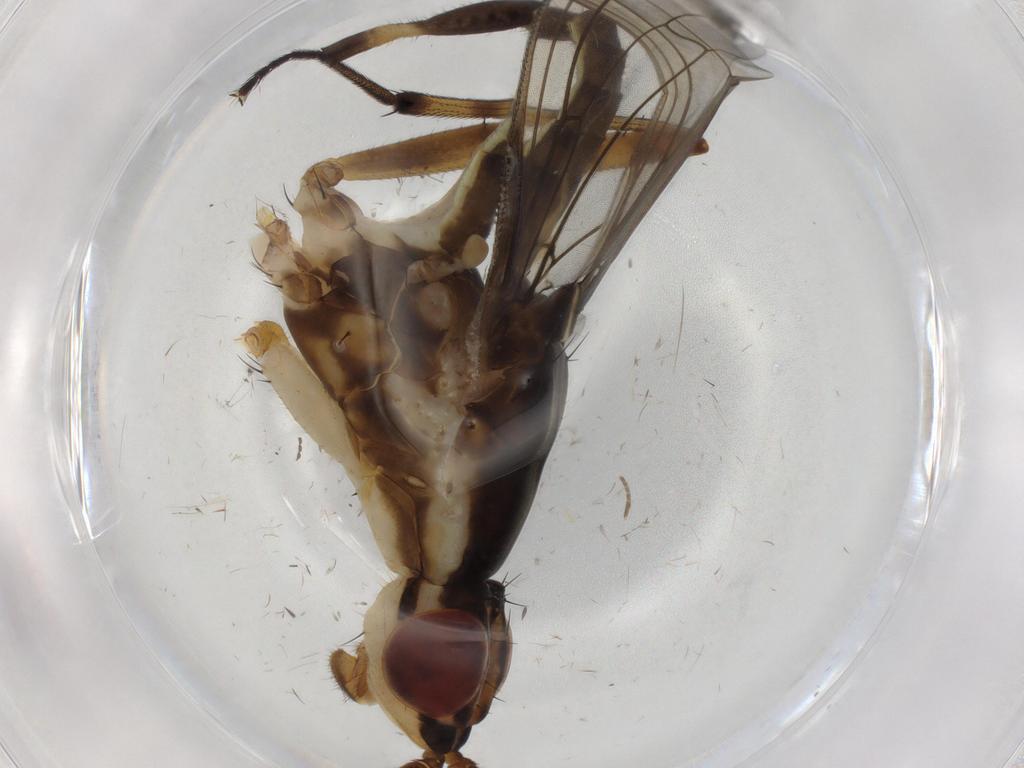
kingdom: Animalia
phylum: Arthropoda
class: Insecta
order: Diptera
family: Neriidae
